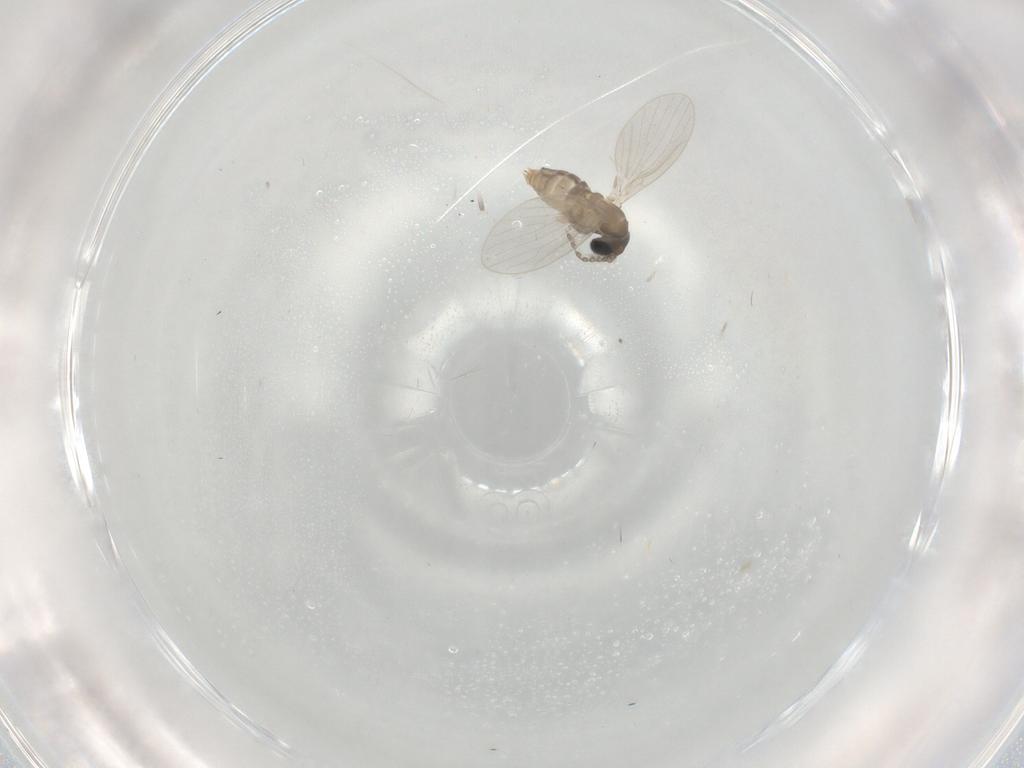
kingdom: Animalia
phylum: Arthropoda
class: Insecta
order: Diptera
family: Psychodidae
